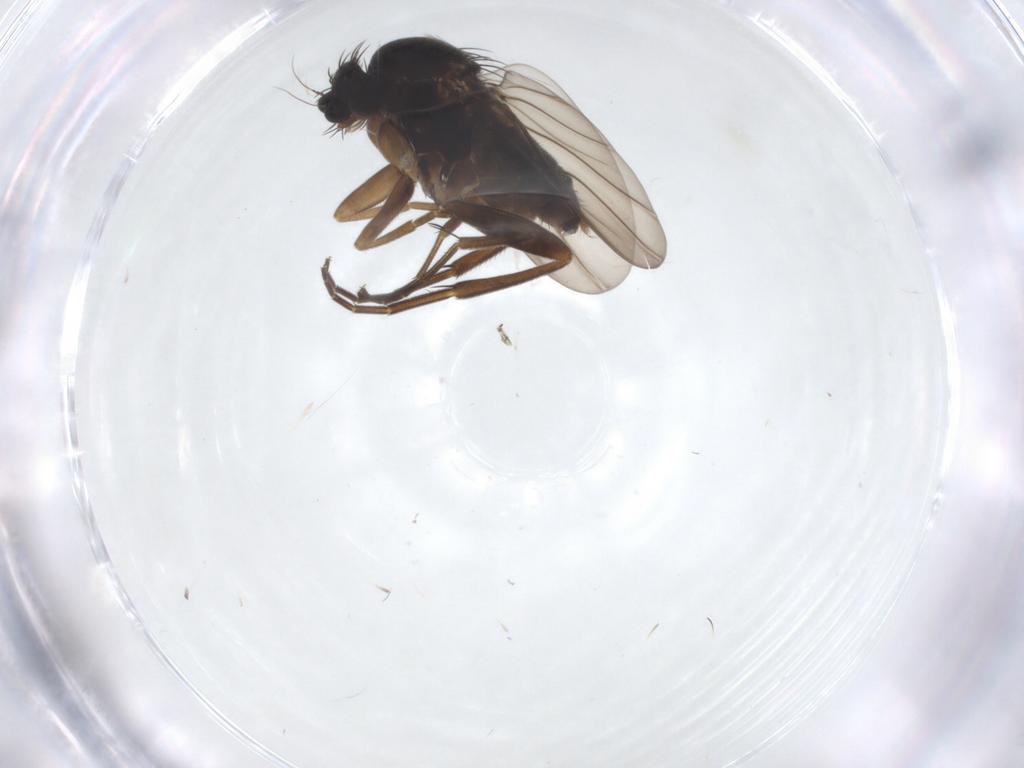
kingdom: Animalia
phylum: Arthropoda
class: Insecta
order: Diptera
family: Phoridae
